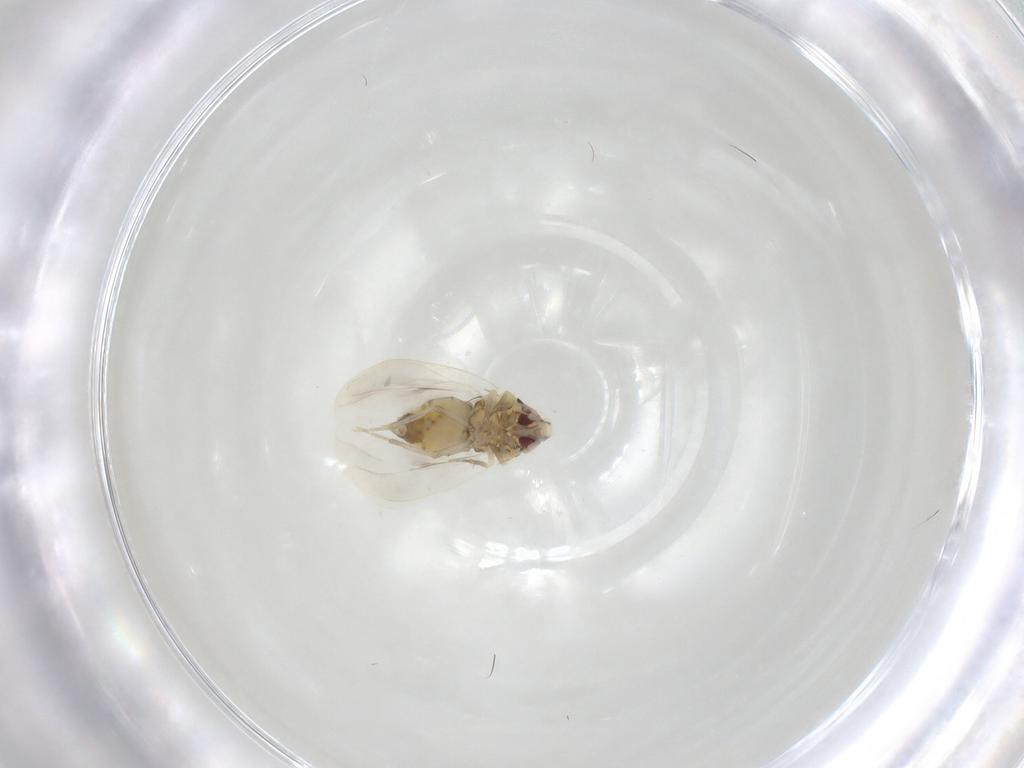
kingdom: Animalia
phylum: Arthropoda
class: Insecta
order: Hemiptera
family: Aleyrodidae
